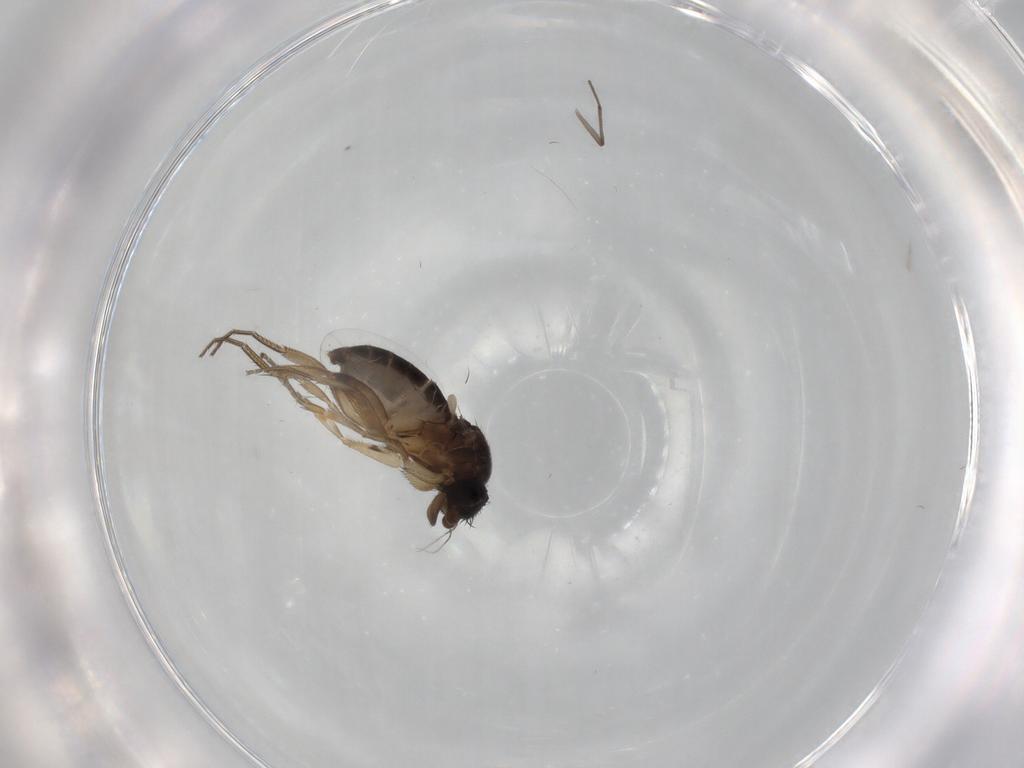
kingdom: Animalia
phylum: Arthropoda
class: Insecta
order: Diptera
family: Phoridae
